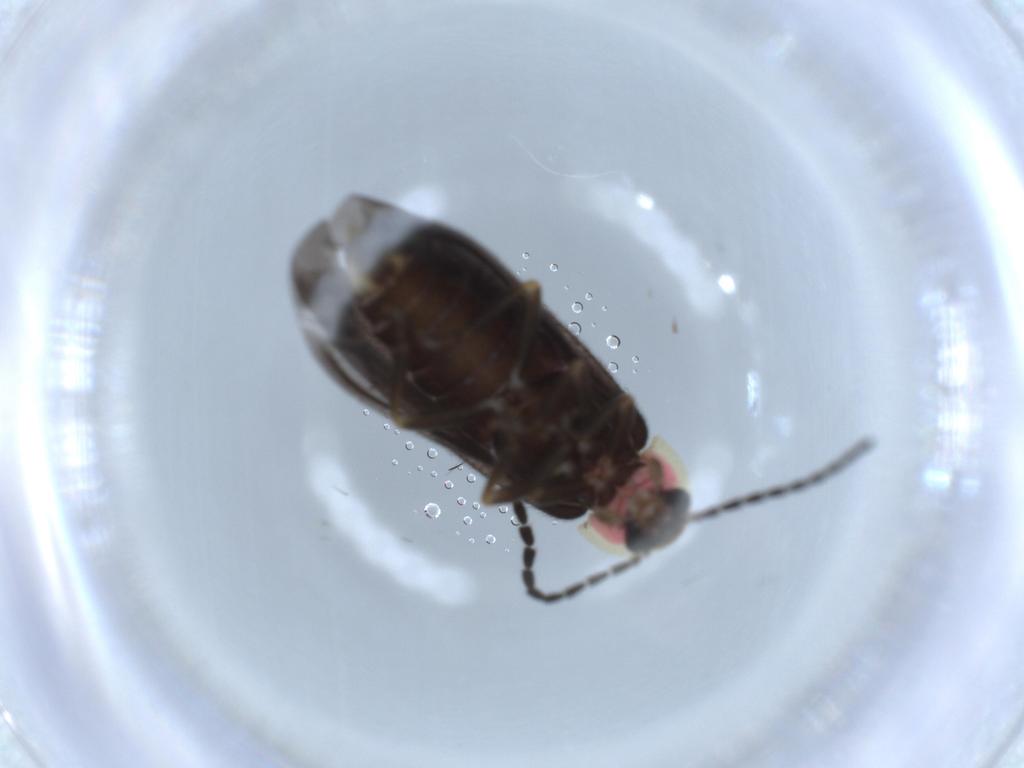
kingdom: Animalia
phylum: Arthropoda
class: Insecta
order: Coleoptera
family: Lampyridae
